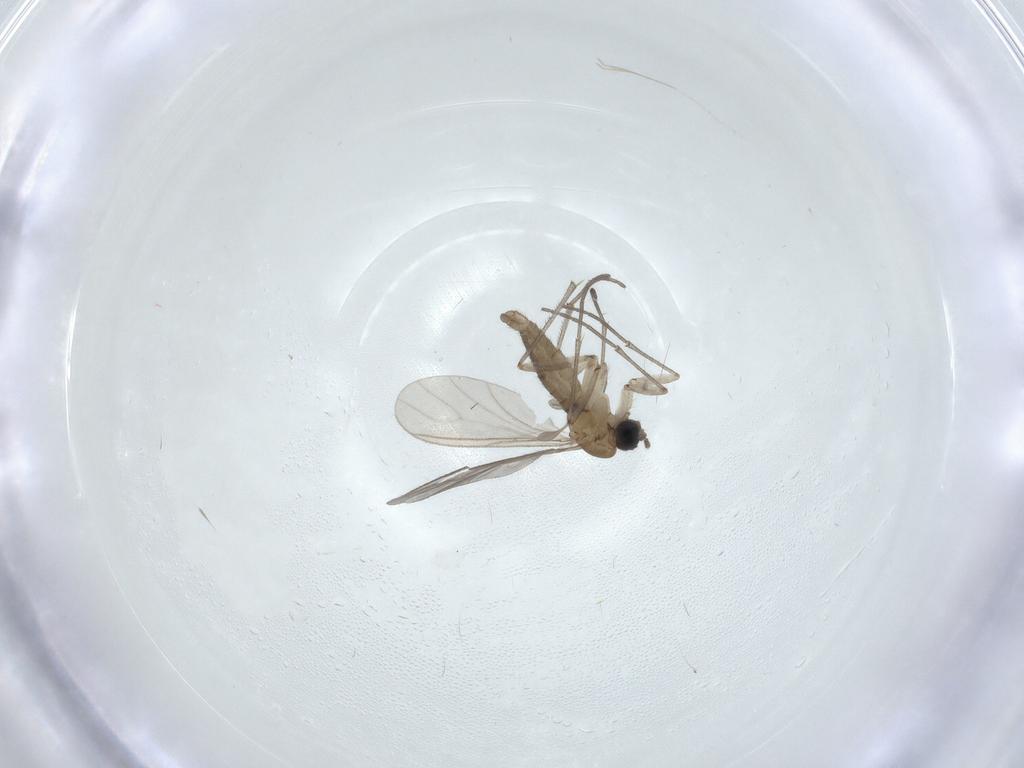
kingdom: Animalia
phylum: Arthropoda
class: Insecta
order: Diptera
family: Sciaridae
